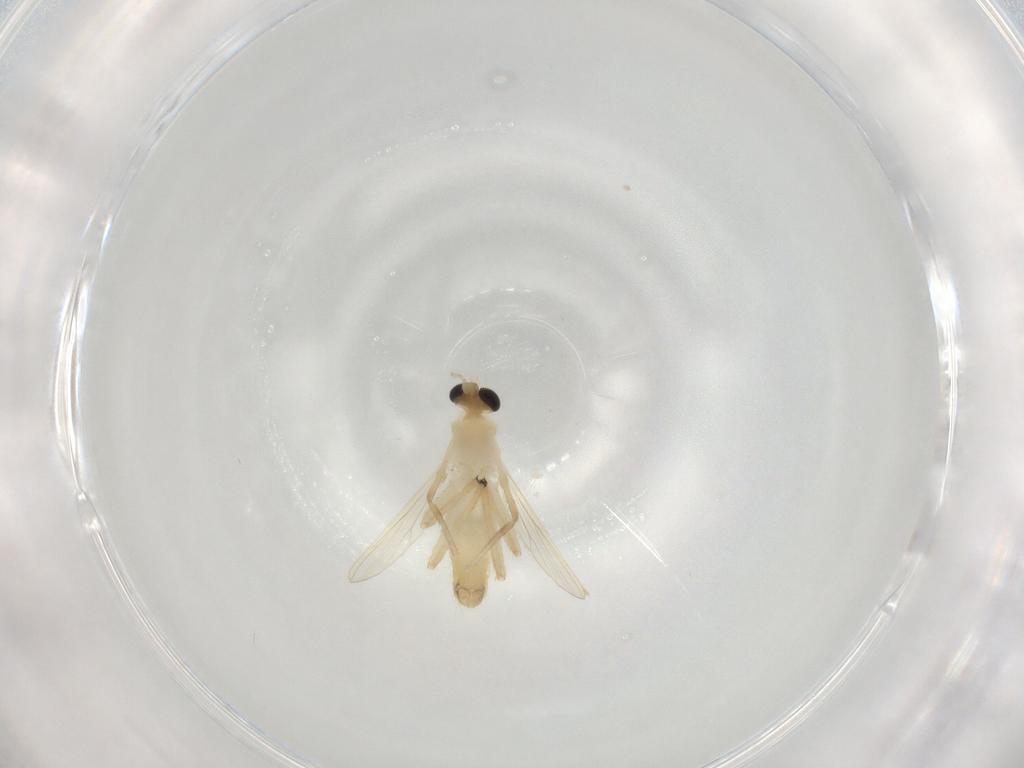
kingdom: Animalia
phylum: Arthropoda
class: Insecta
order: Diptera
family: Chironomidae
